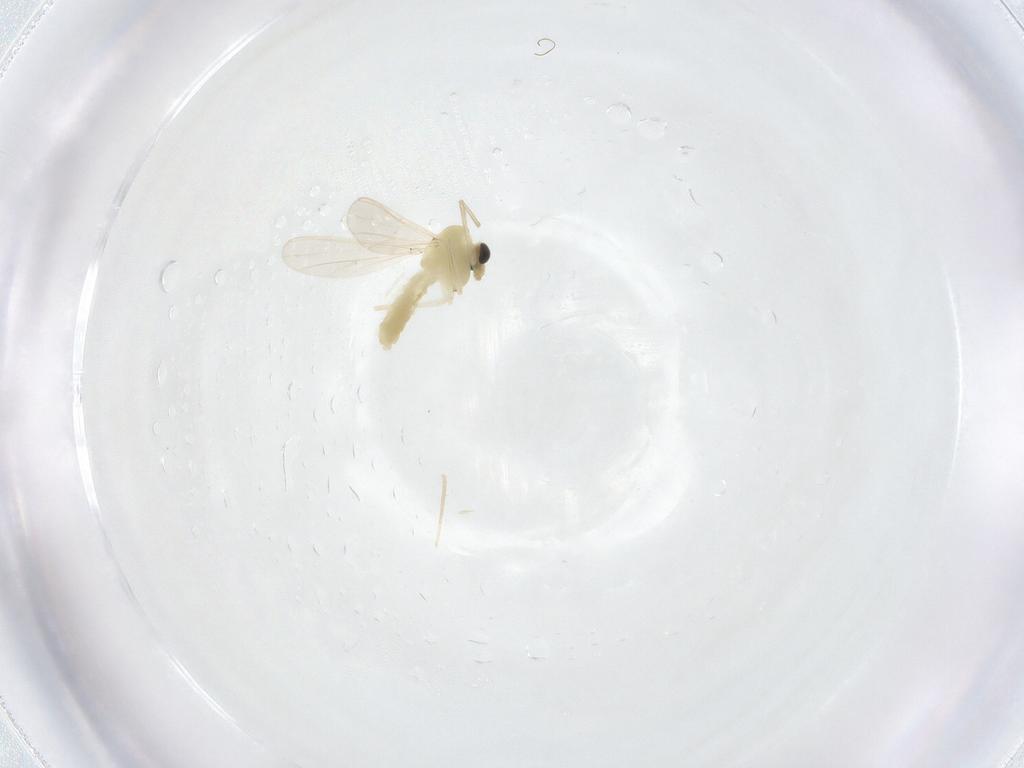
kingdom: Animalia
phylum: Arthropoda
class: Insecta
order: Diptera
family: Chironomidae
